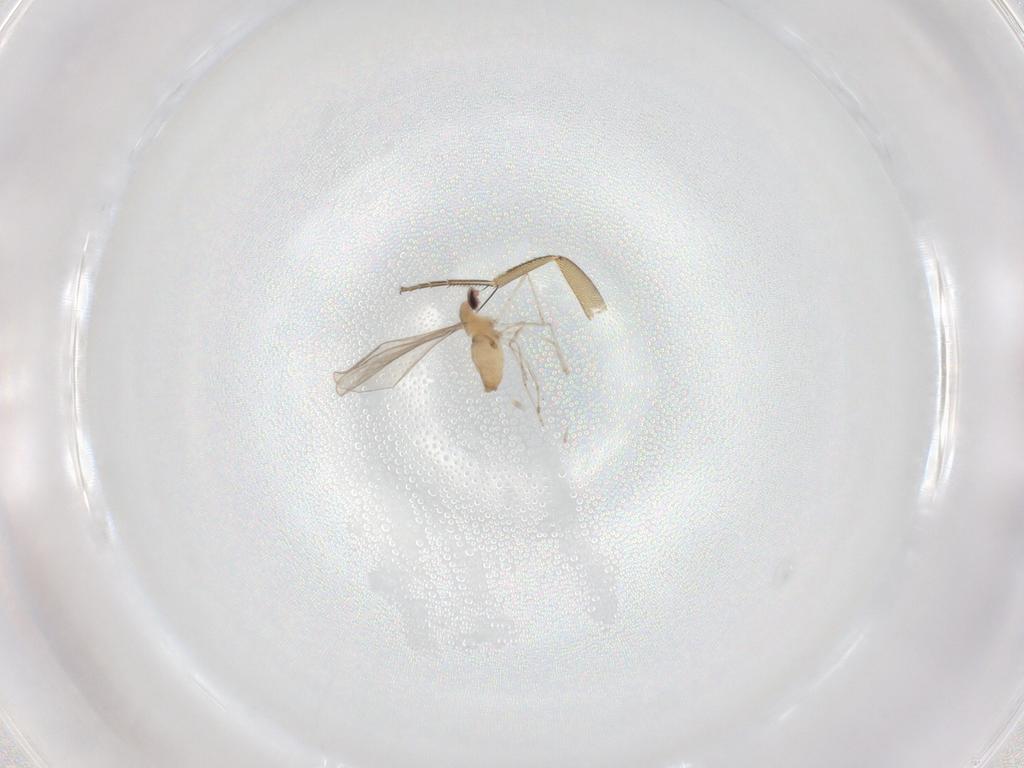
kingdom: Animalia
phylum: Arthropoda
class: Insecta
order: Diptera
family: Cecidomyiidae
